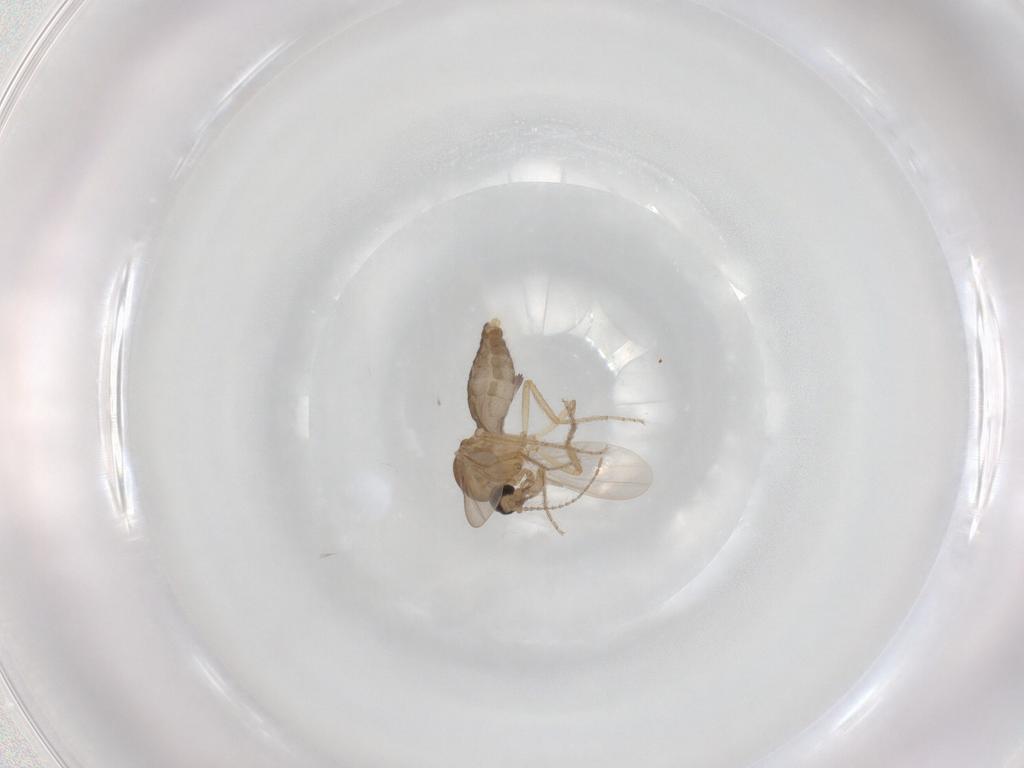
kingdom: Animalia
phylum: Arthropoda
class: Insecta
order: Diptera
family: Ceratopogonidae
